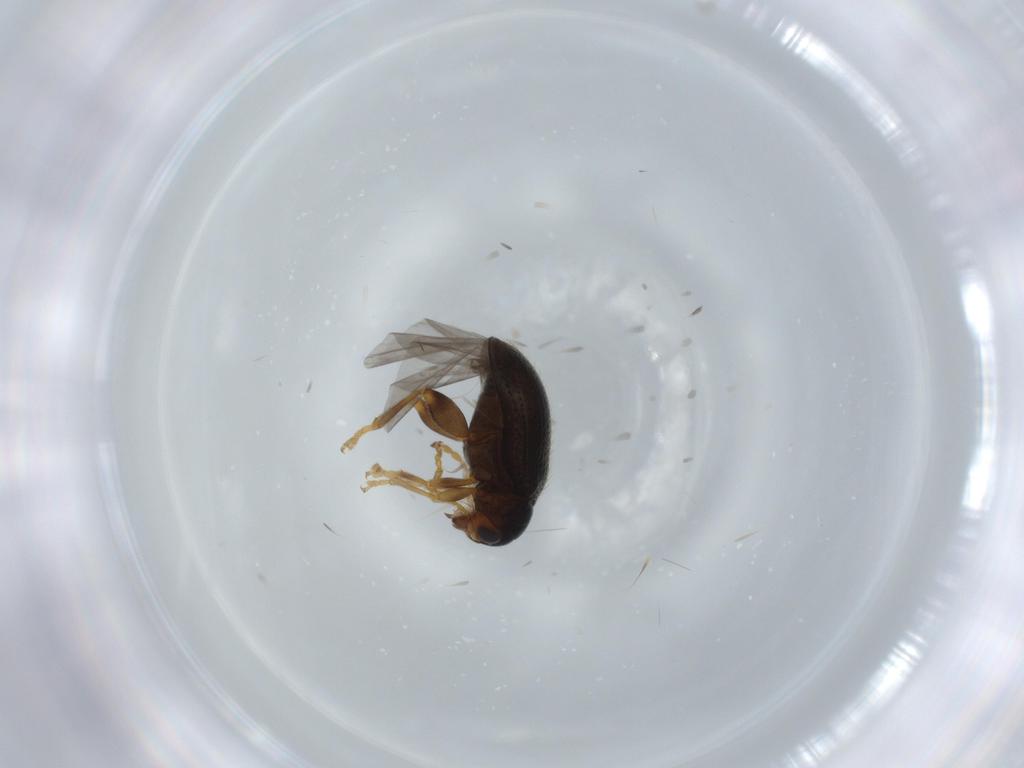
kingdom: Animalia
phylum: Arthropoda
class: Insecta
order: Coleoptera
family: Chrysomelidae
